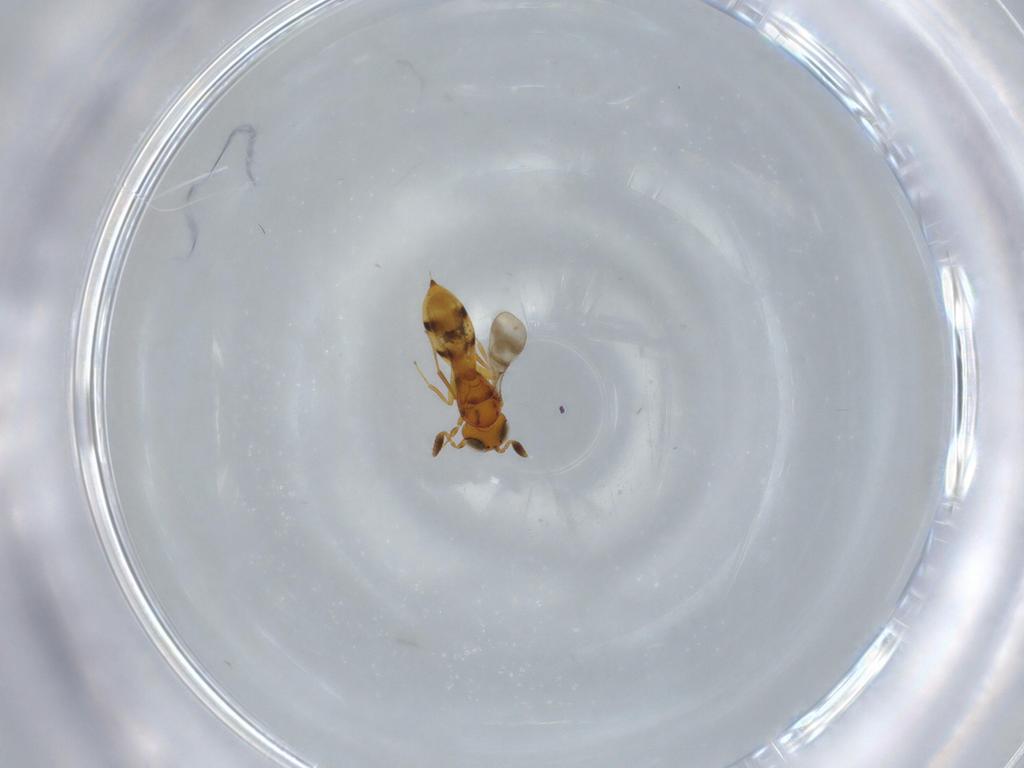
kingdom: Animalia
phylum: Arthropoda
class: Insecta
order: Hymenoptera
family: Scelionidae
